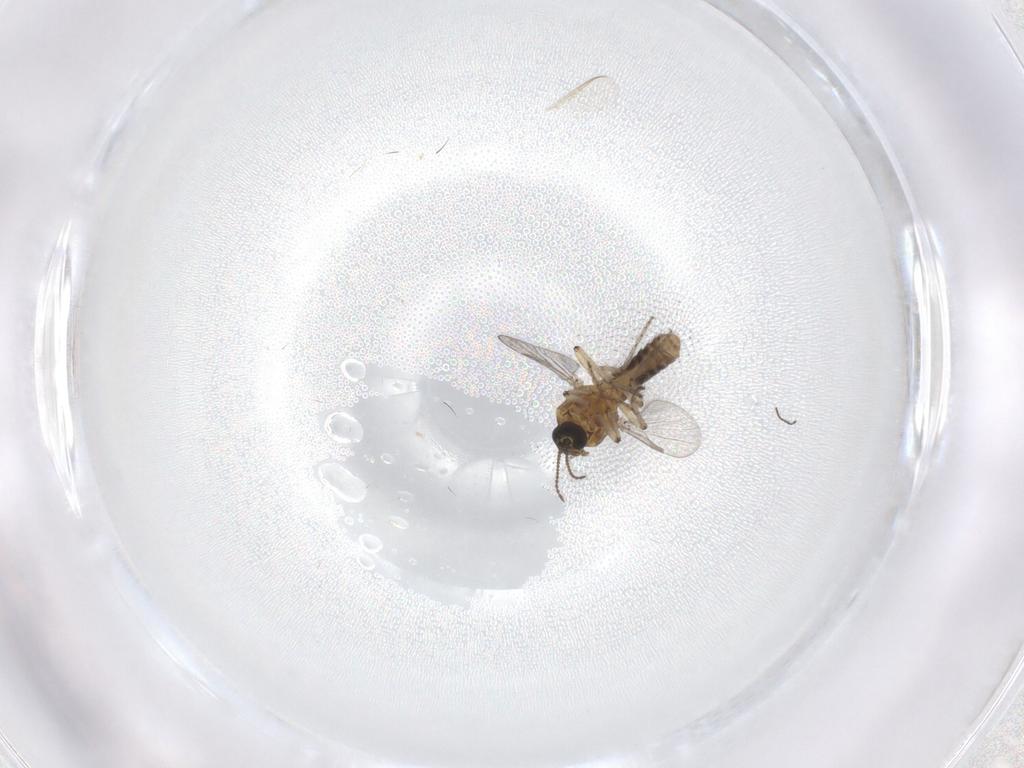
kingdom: Animalia
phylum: Arthropoda
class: Insecta
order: Diptera
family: Ceratopogonidae
